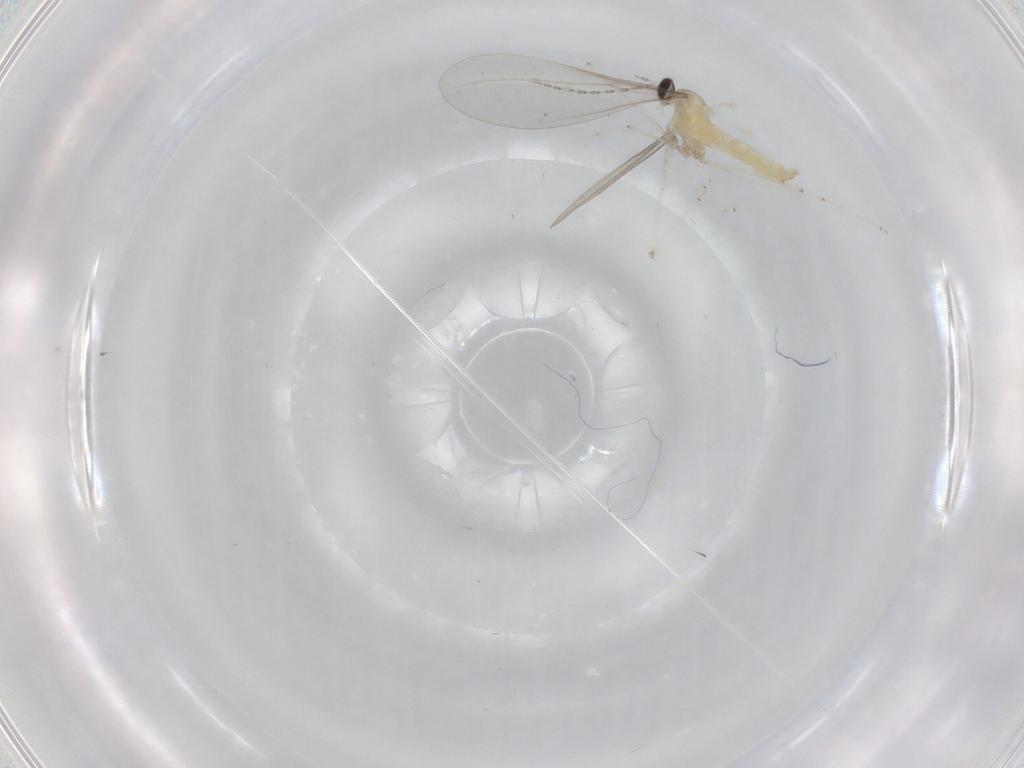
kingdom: Animalia
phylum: Arthropoda
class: Insecta
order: Diptera
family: Cecidomyiidae
